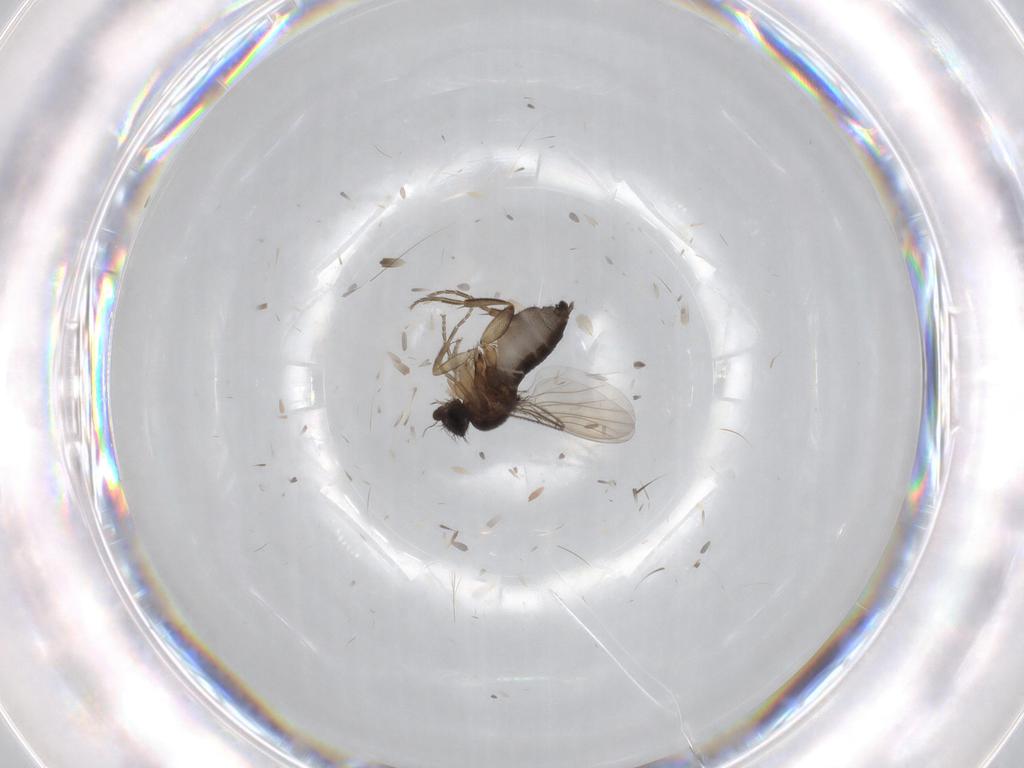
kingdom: Animalia
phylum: Arthropoda
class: Insecta
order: Diptera
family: Phoridae
